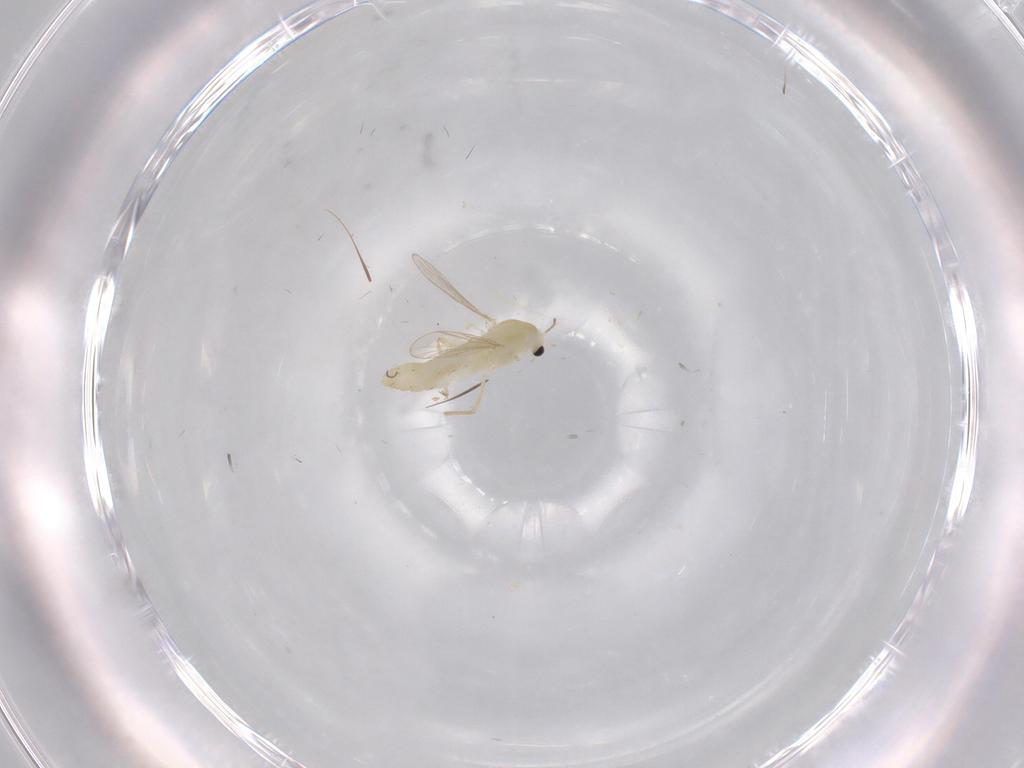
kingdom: Animalia
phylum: Arthropoda
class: Insecta
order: Diptera
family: Chironomidae
